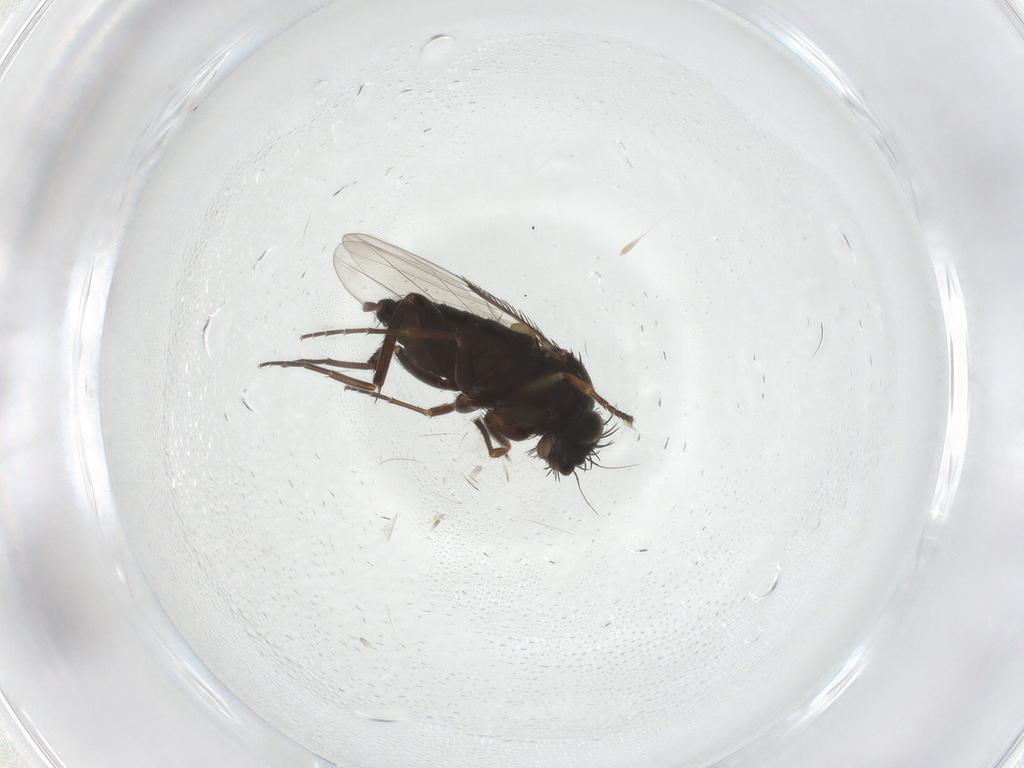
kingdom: Animalia
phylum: Arthropoda
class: Insecta
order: Diptera
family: Phoridae
